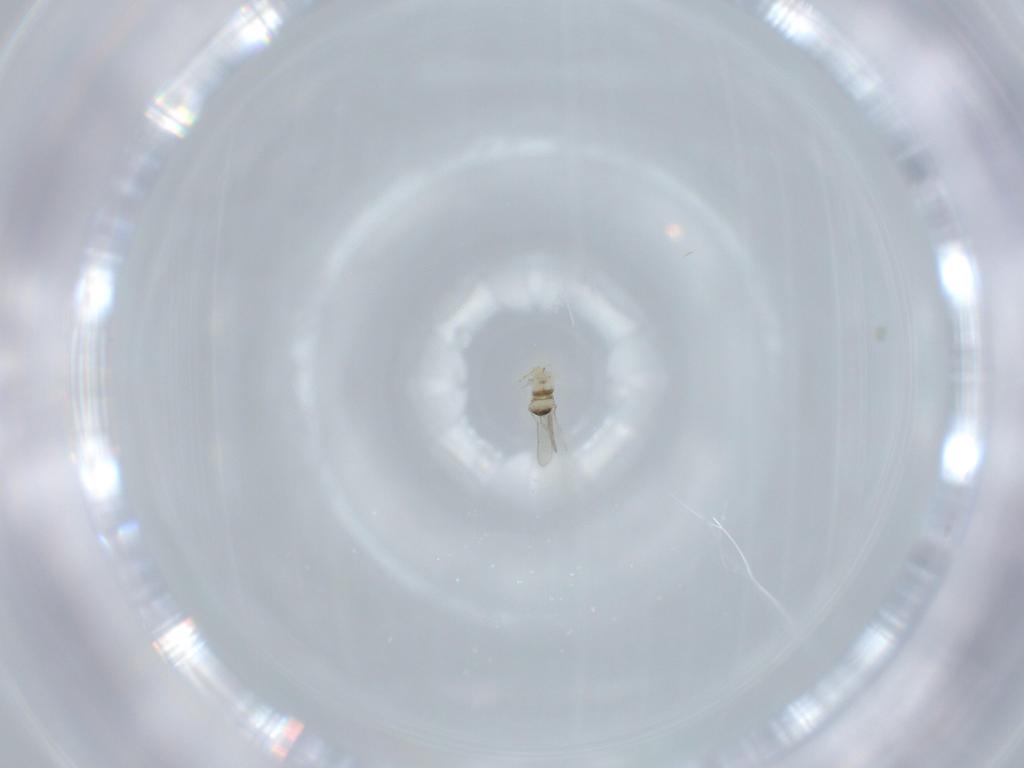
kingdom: Animalia
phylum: Arthropoda
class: Insecta
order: Hymenoptera
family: Aphelinidae
